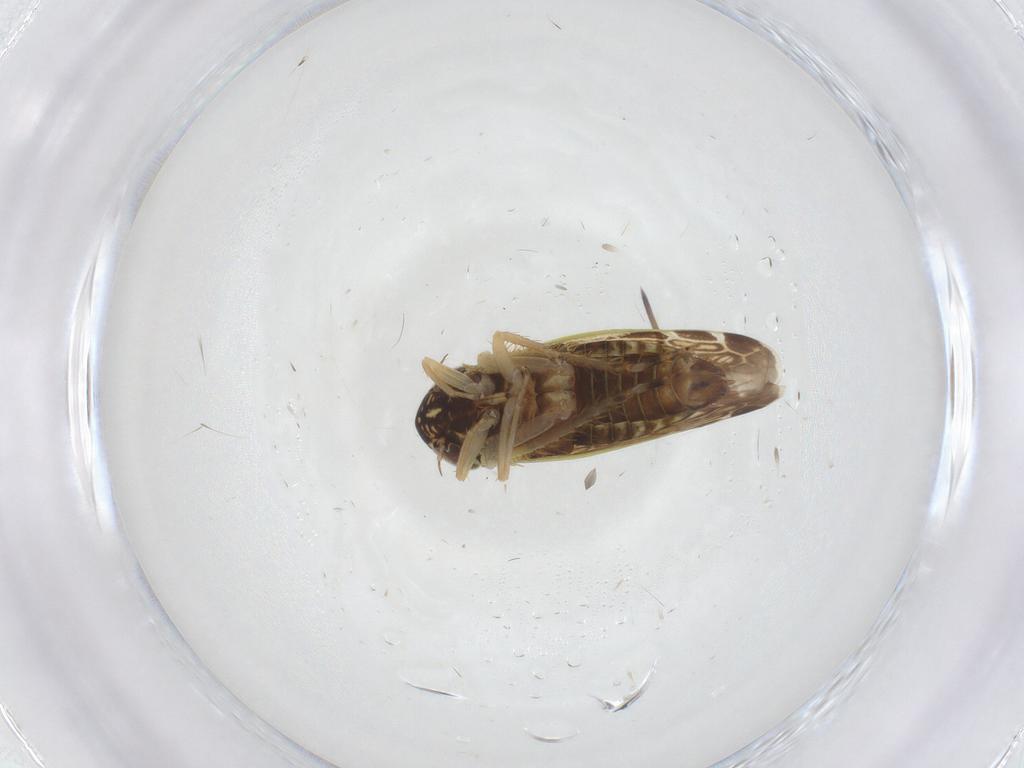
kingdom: Animalia
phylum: Arthropoda
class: Insecta
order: Hemiptera
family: Cicadellidae
